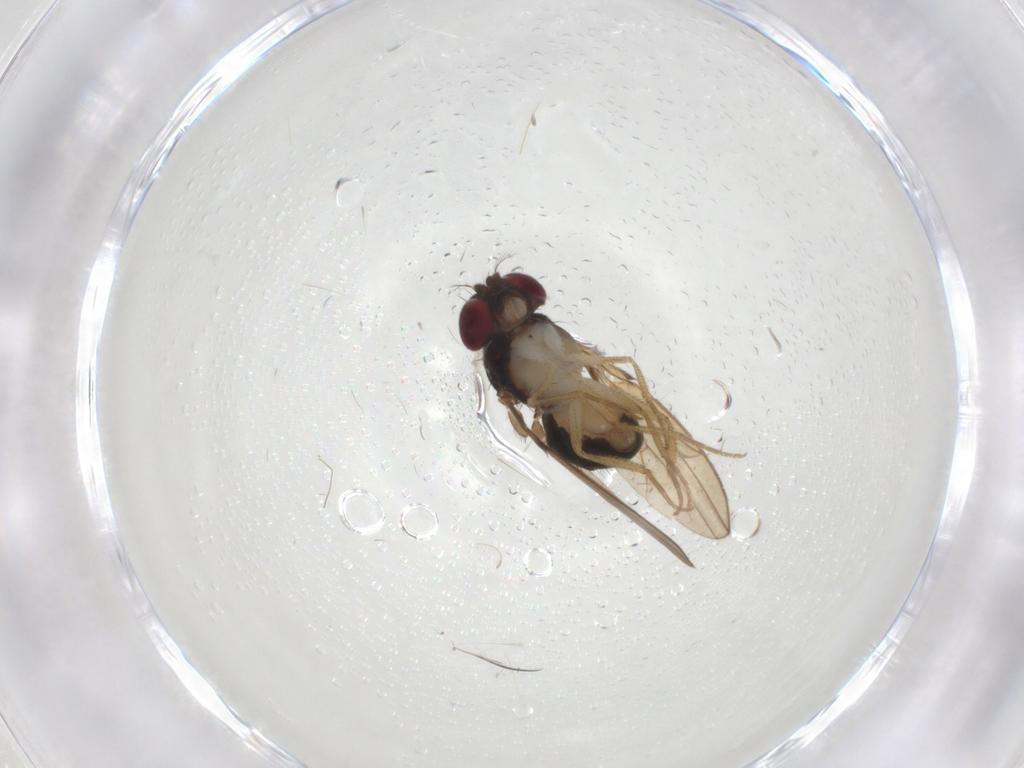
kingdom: Animalia
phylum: Arthropoda
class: Insecta
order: Diptera
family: Drosophilidae
